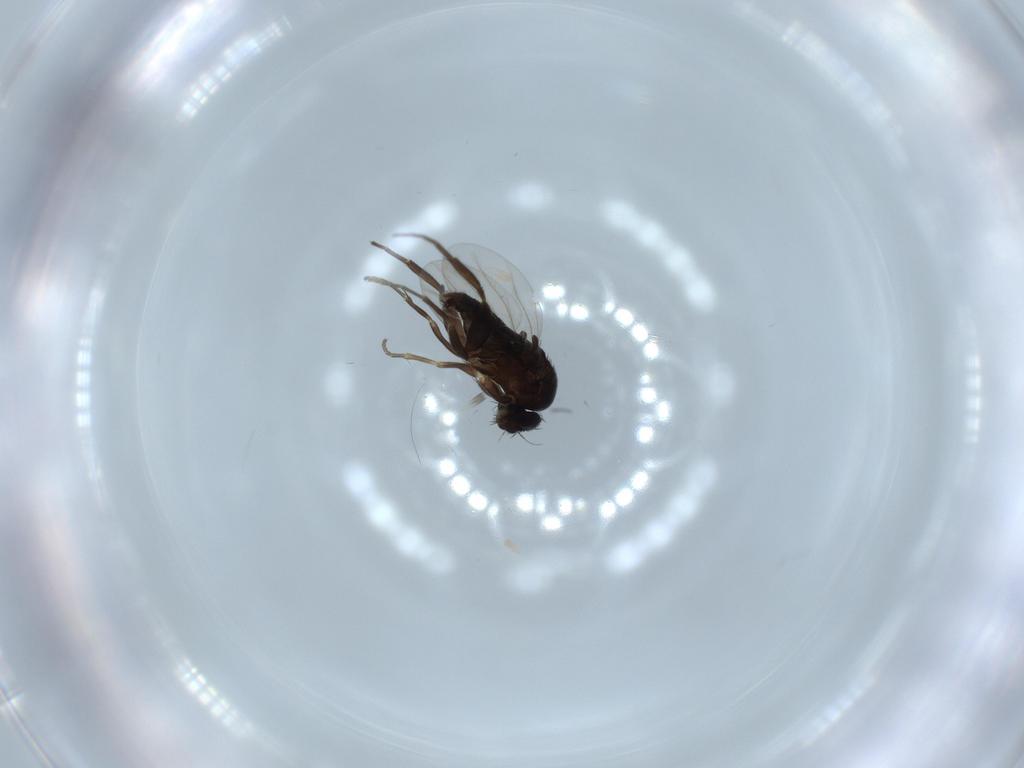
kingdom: Animalia
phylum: Arthropoda
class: Insecta
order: Diptera
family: Phoridae
